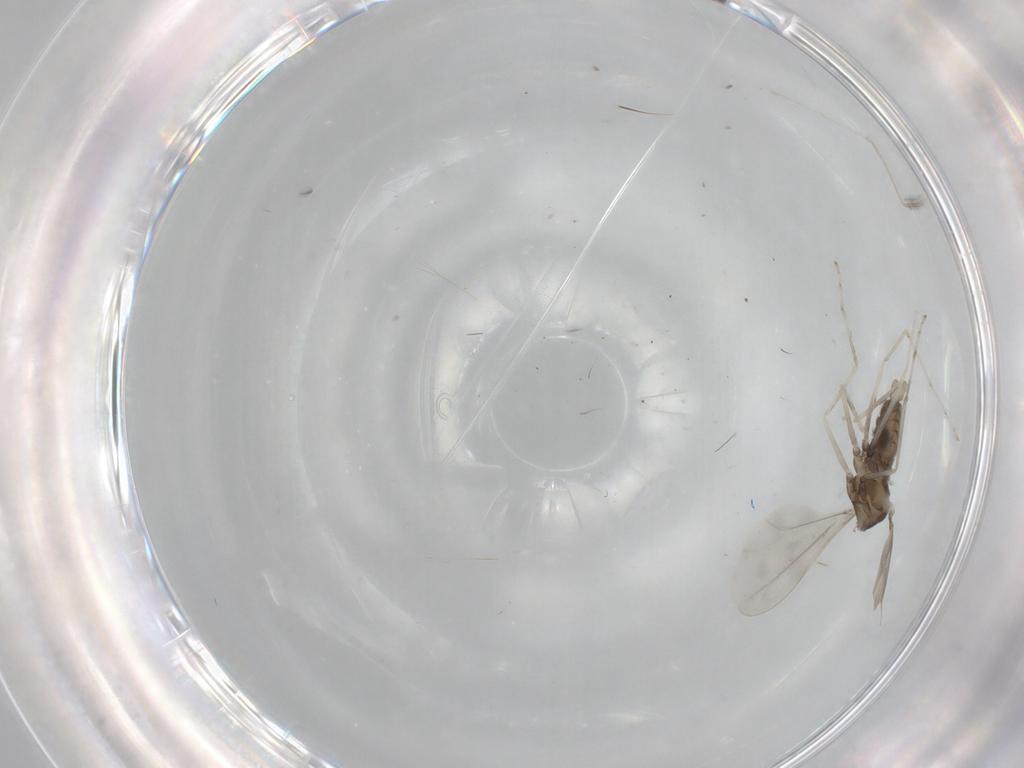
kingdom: Animalia
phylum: Arthropoda
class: Insecta
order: Diptera
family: Cecidomyiidae
